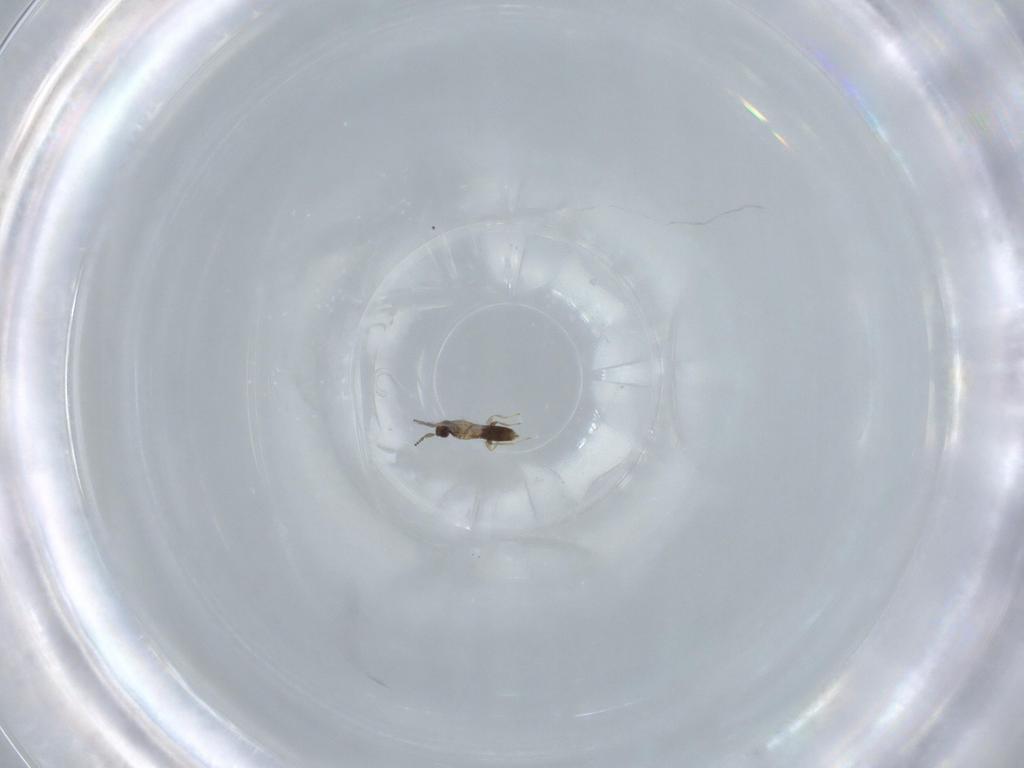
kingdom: Animalia
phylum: Arthropoda
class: Insecta
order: Hymenoptera
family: Mymaridae
